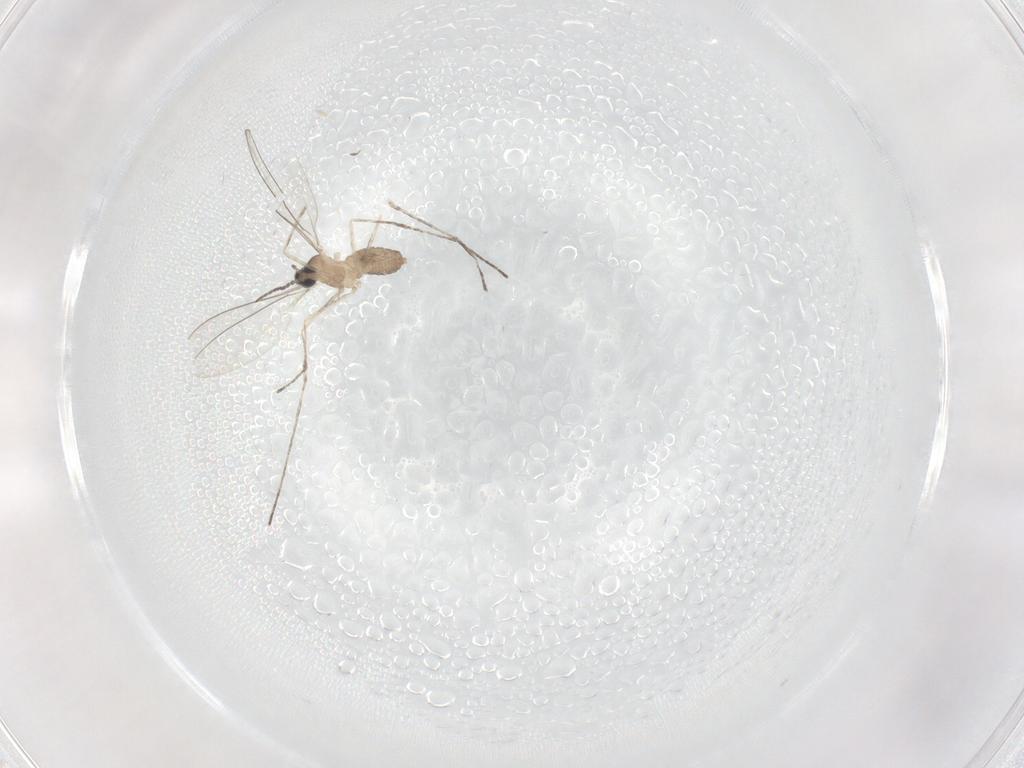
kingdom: Animalia
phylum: Arthropoda
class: Insecta
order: Diptera
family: Cecidomyiidae
